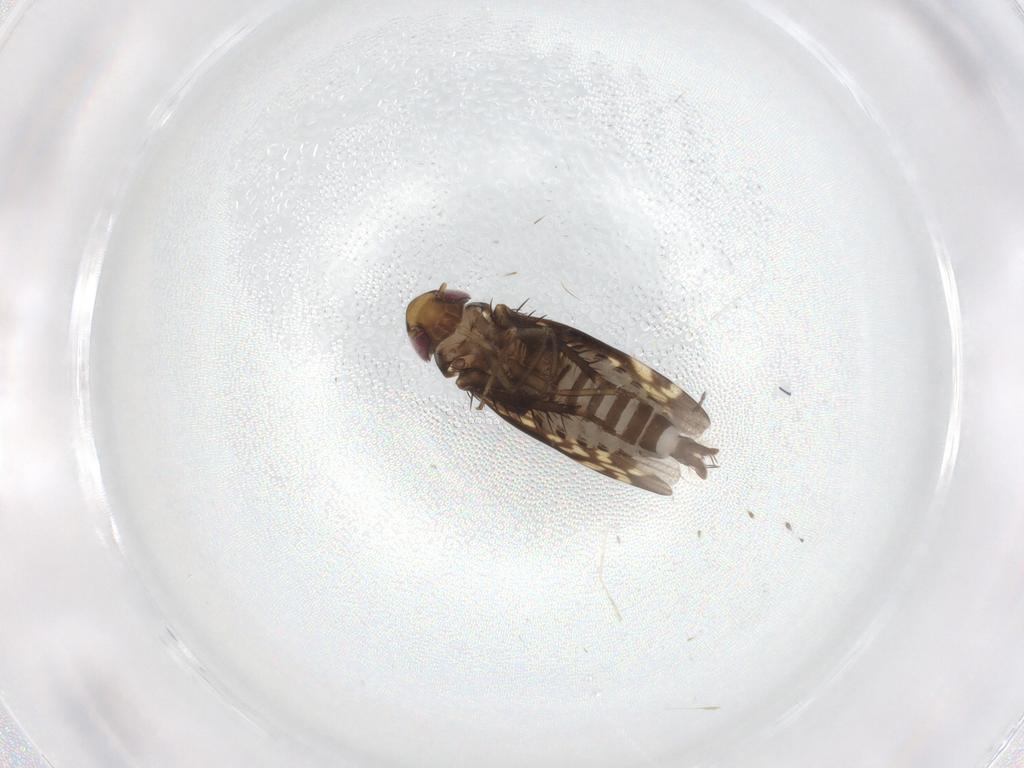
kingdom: Animalia
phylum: Arthropoda
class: Insecta
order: Hemiptera
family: Cicadellidae
